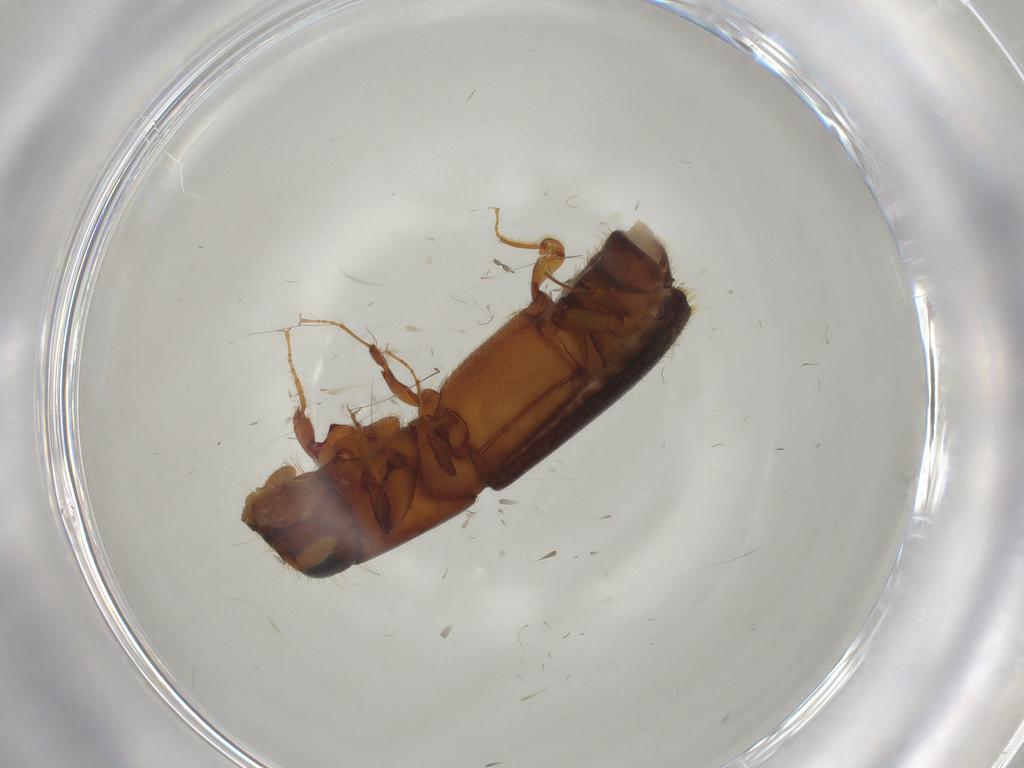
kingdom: Animalia
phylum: Arthropoda
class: Insecta
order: Coleoptera
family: Curculionidae
